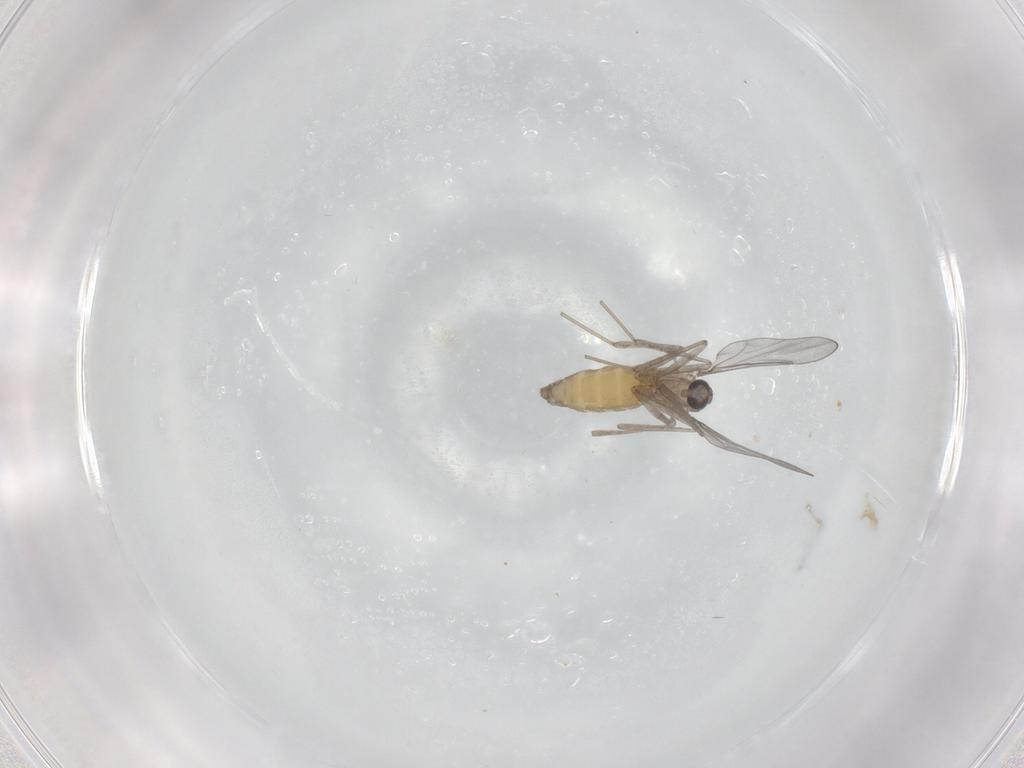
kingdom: Animalia
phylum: Arthropoda
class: Insecta
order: Diptera
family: Cecidomyiidae
